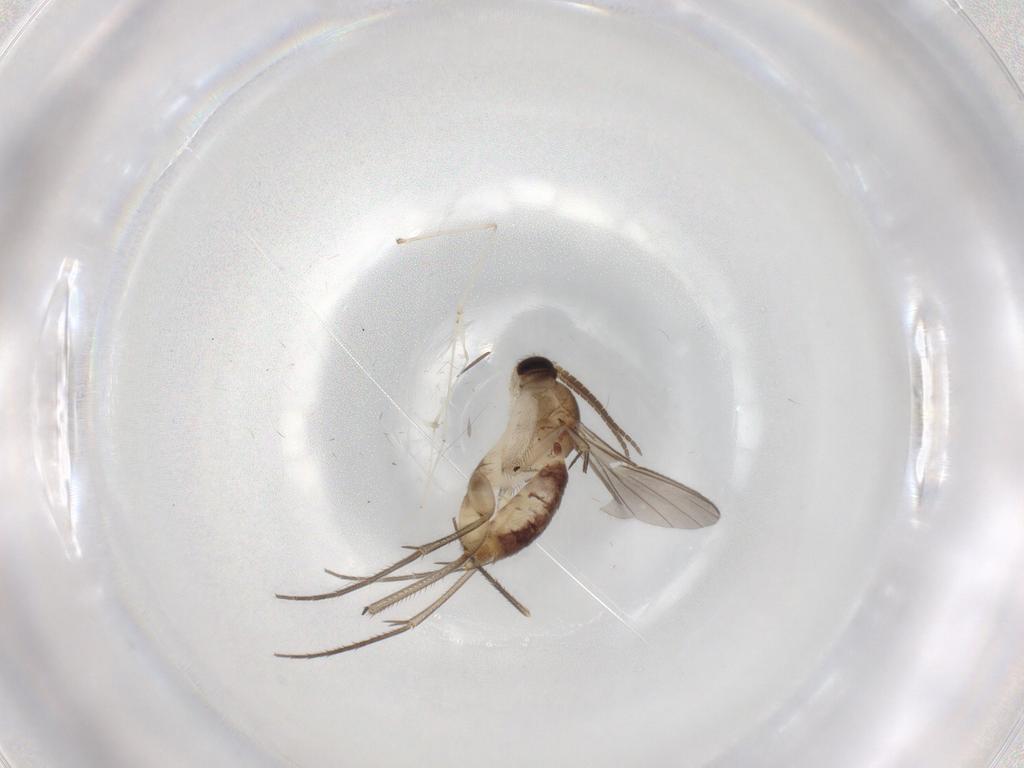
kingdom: Animalia
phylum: Arthropoda
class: Insecta
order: Diptera
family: Mycetophilidae
